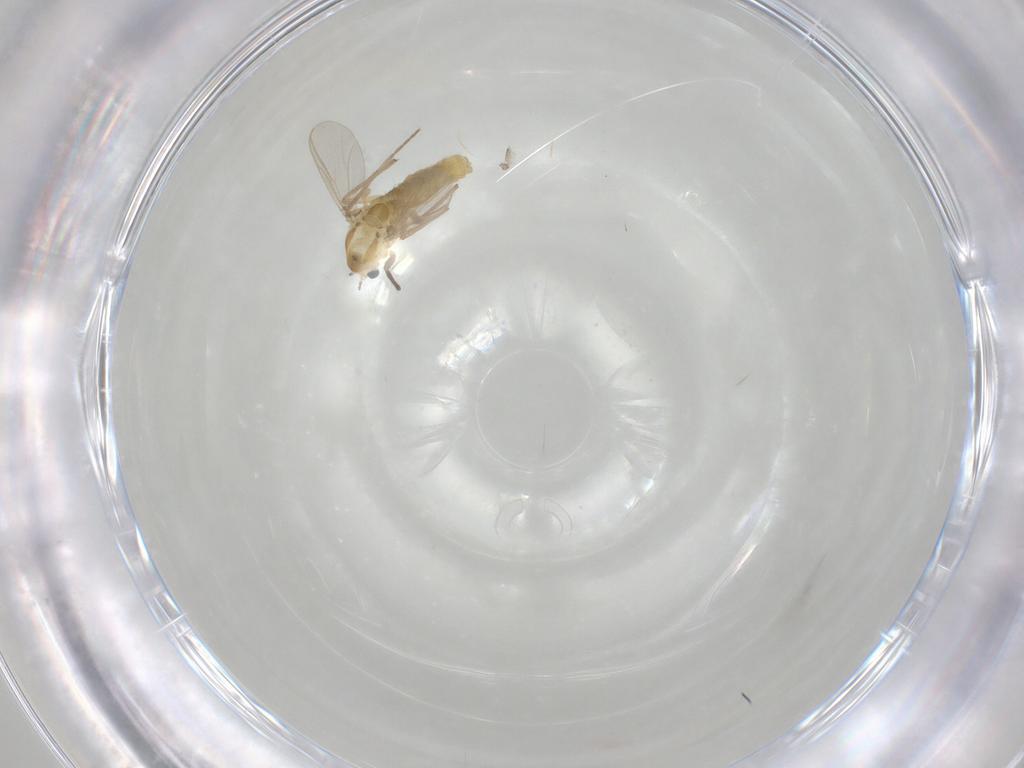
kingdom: Animalia
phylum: Arthropoda
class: Insecta
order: Diptera
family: Chironomidae
